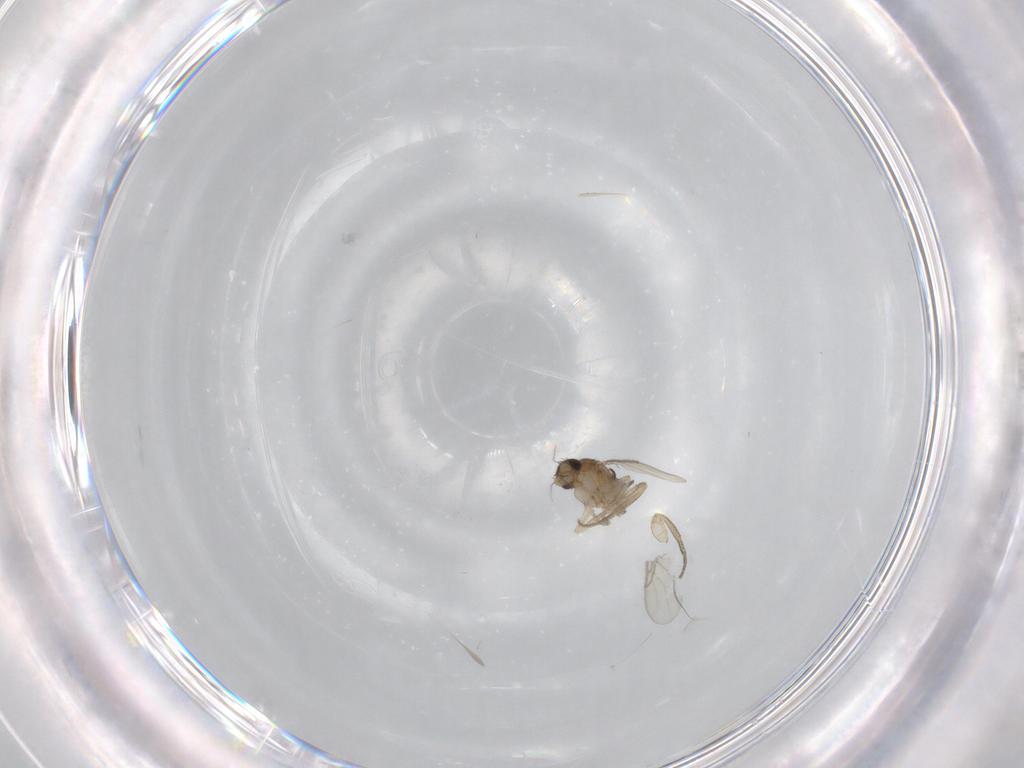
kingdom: Animalia
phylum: Arthropoda
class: Insecta
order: Diptera
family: Phoridae
